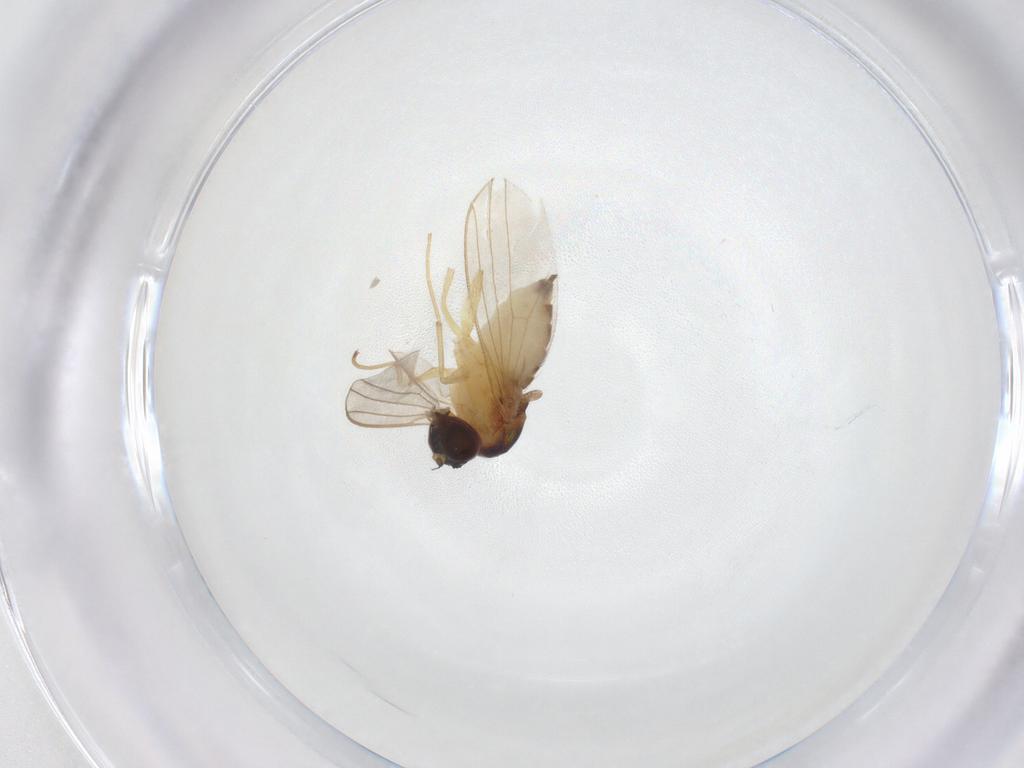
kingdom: Animalia
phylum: Arthropoda
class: Insecta
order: Diptera
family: Dolichopodidae
